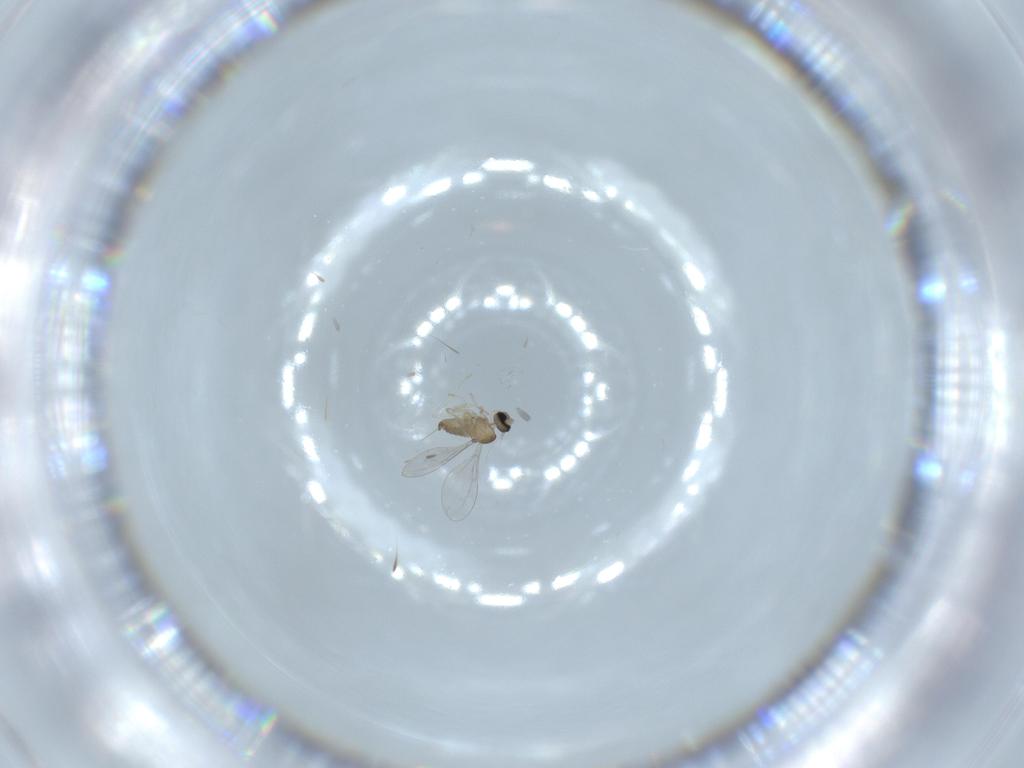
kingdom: Animalia
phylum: Arthropoda
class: Insecta
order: Diptera
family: Cecidomyiidae
